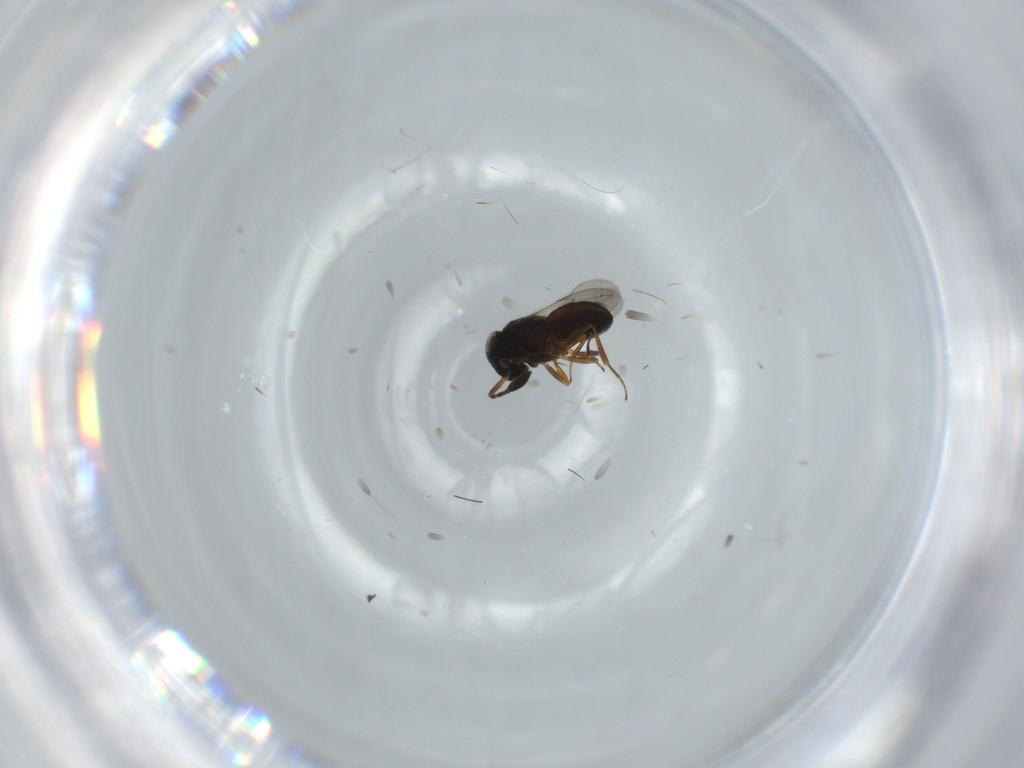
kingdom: Animalia
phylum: Arthropoda
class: Insecta
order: Hymenoptera
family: Scelionidae
